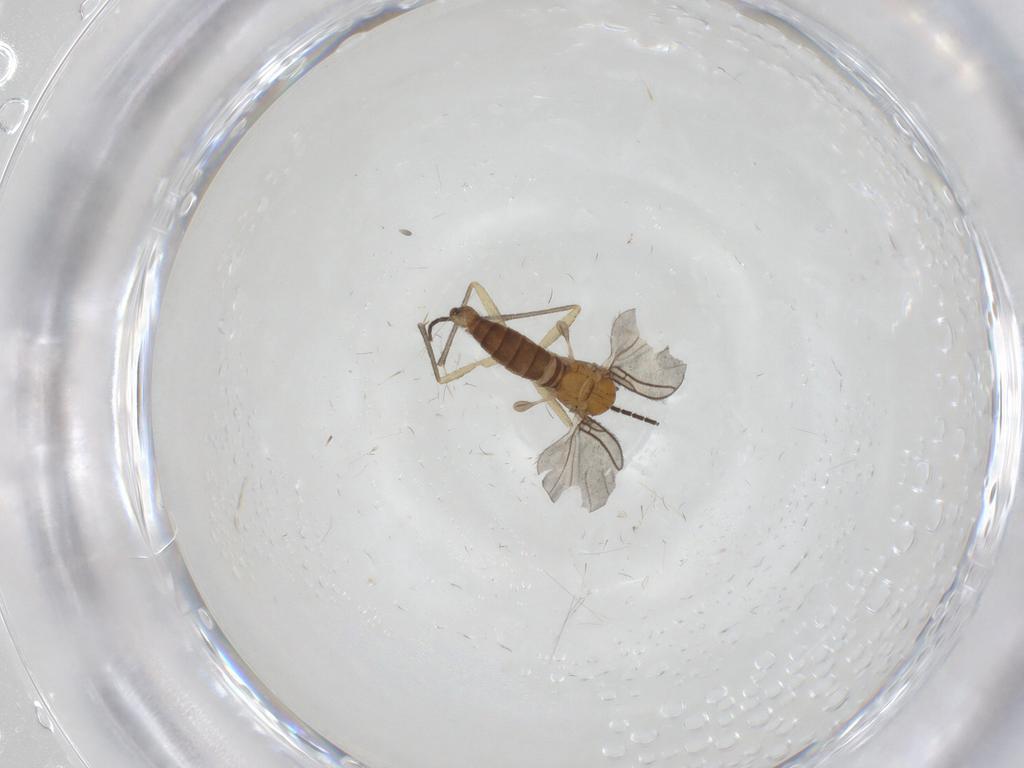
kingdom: Animalia
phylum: Arthropoda
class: Insecta
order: Diptera
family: Sciaridae
